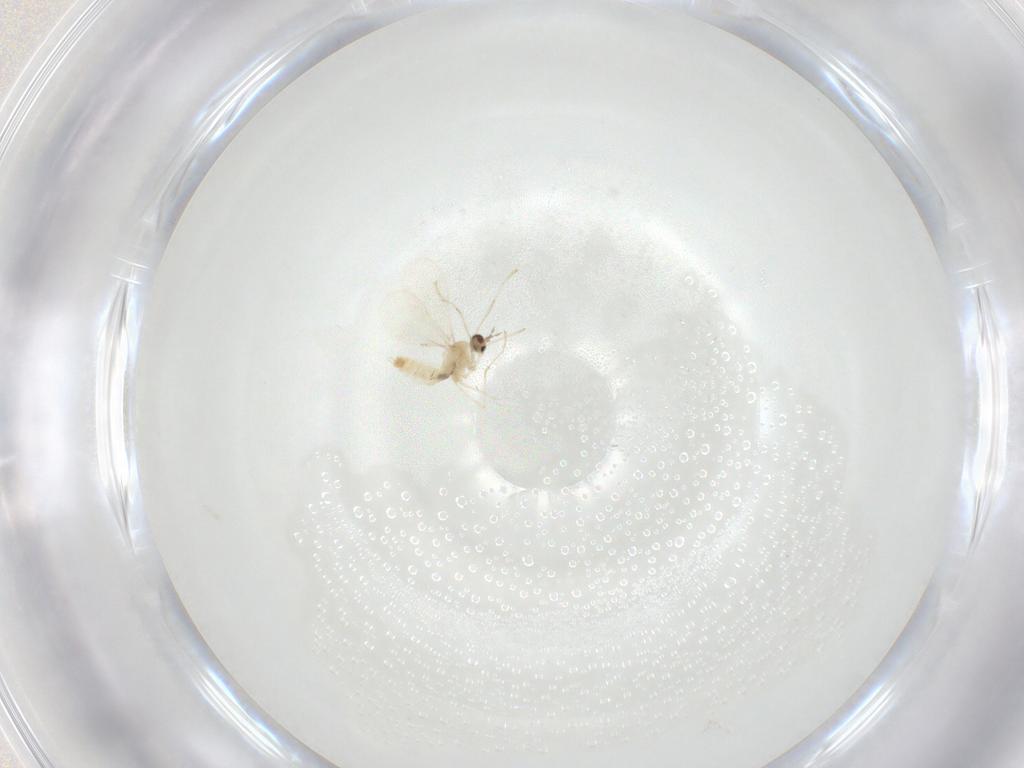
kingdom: Animalia
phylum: Arthropoda
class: Insecta
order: Diptera
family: Cecidomyiidae
